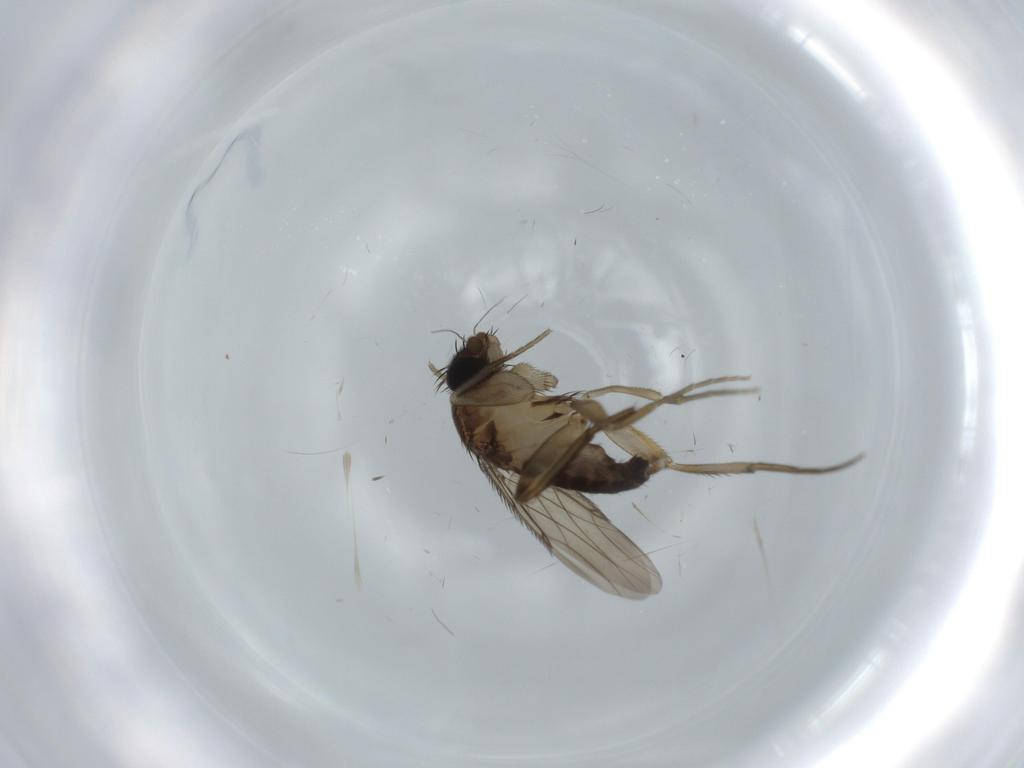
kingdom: Animalia
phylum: Arthropoda
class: Insecta
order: Diptera
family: Phoridae
